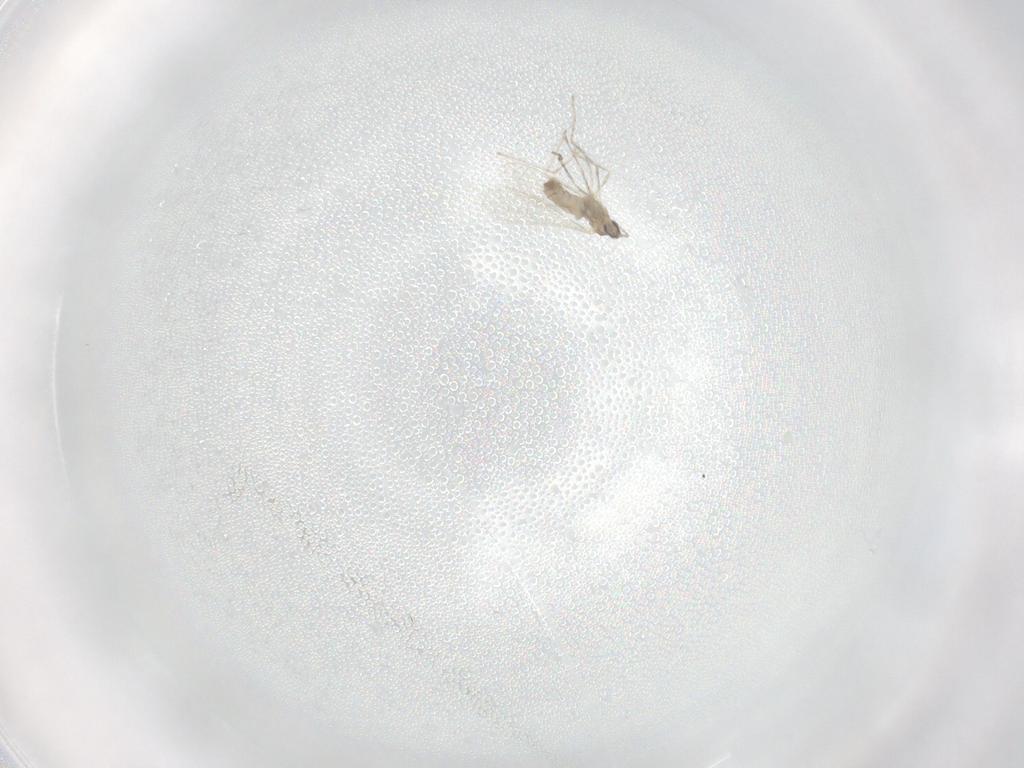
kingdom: Animalia
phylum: Arthropoda
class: Insecta
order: Diptera
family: Cecidomyiidae
